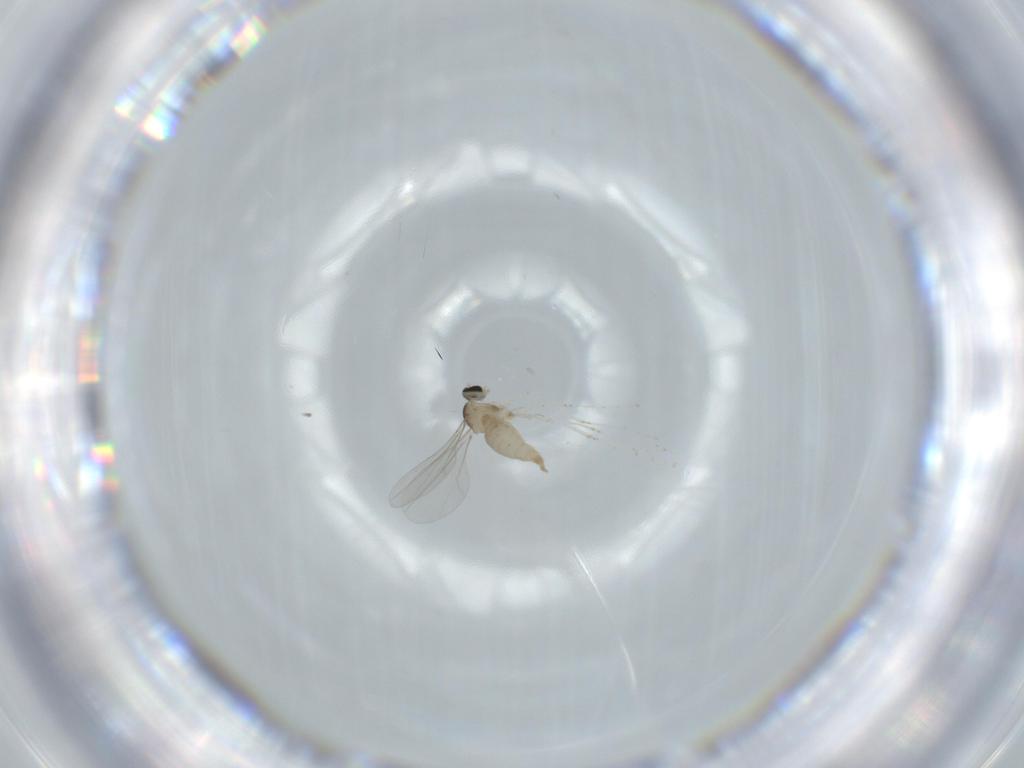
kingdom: Animalia
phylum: Arthropoda
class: Insecta
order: Diptera
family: Cecidomyiidae
